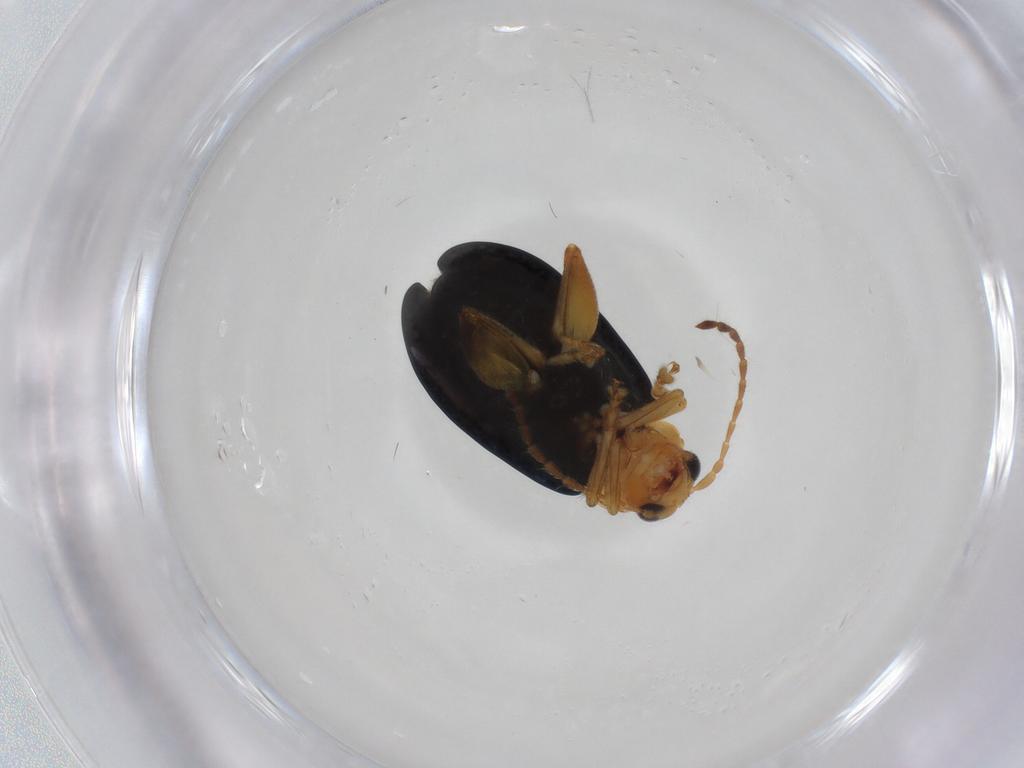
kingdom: Animalia
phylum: Arthropoda
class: Insecta
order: Coleoptera
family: Chrysomelidae
